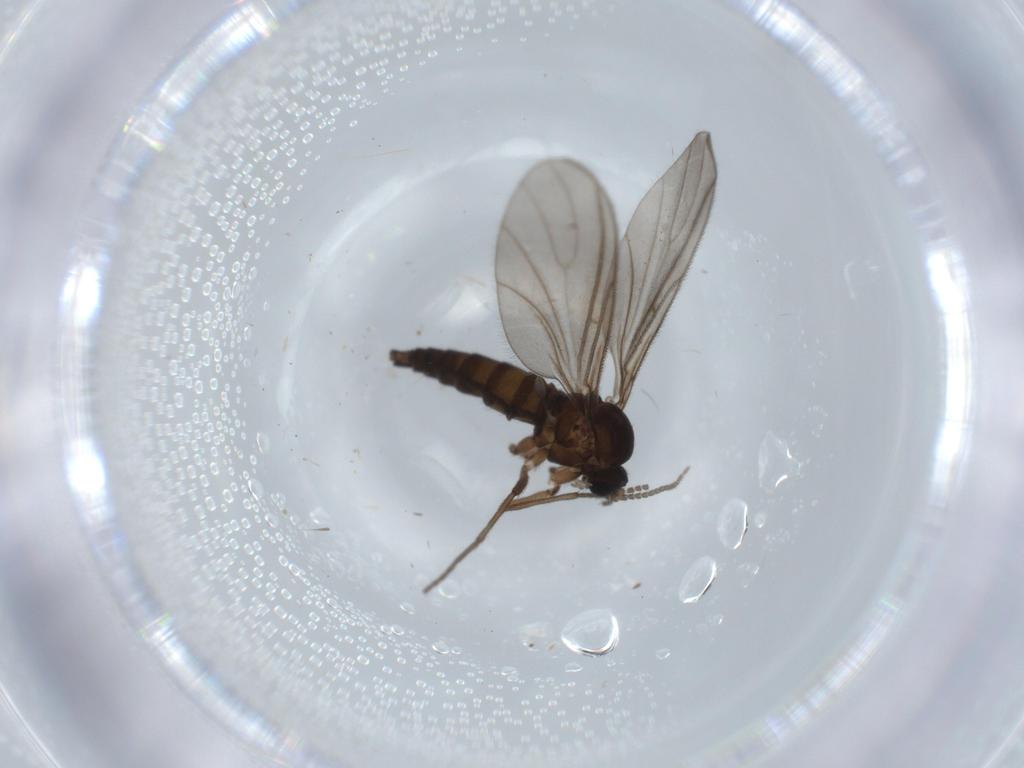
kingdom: Animalia
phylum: Arthropoda
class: Insecta
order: Diptera
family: Sciaridae
